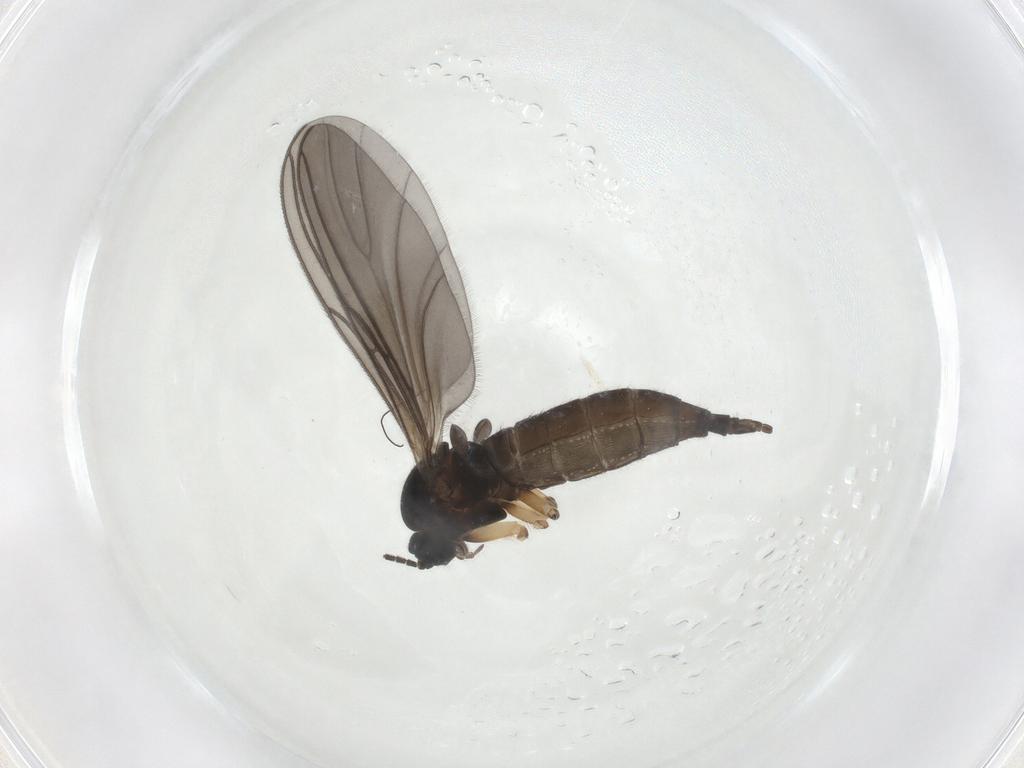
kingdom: Animalia
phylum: Arthropoda
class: Insecta
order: Diptera
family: Sciaridae
